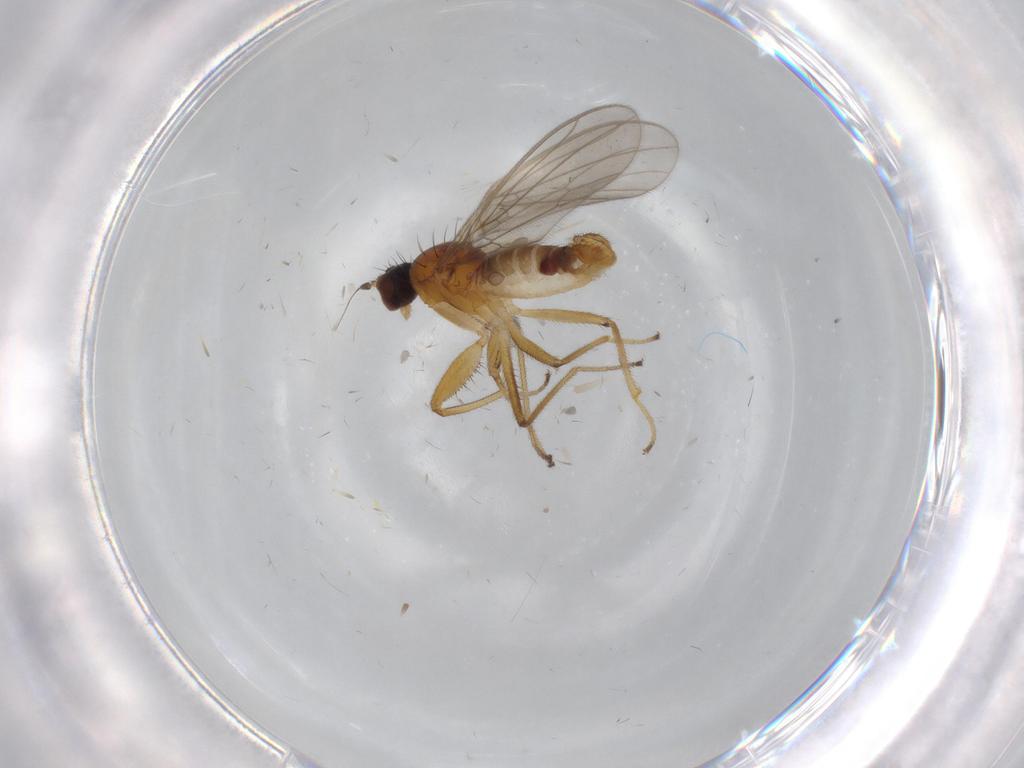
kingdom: Animalia
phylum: Arthropoda
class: Insecta
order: Diptera
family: Empididae
